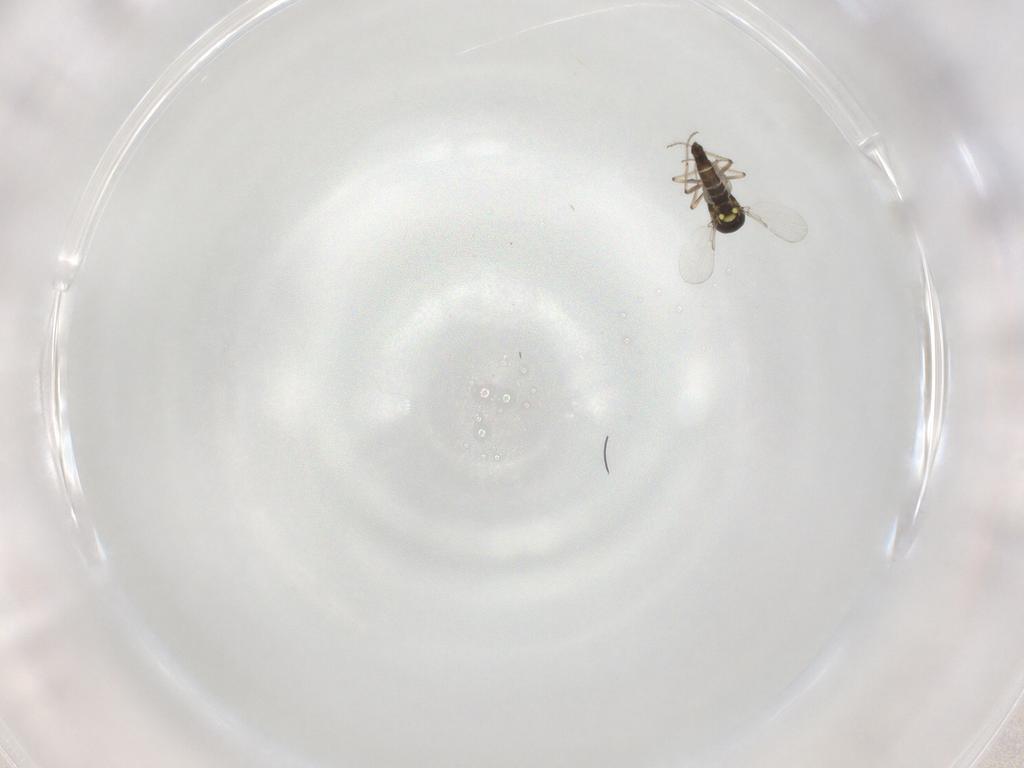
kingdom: Animalia
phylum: Arthropoda
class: Insecta
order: Diptera
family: Ceratopogonidae
